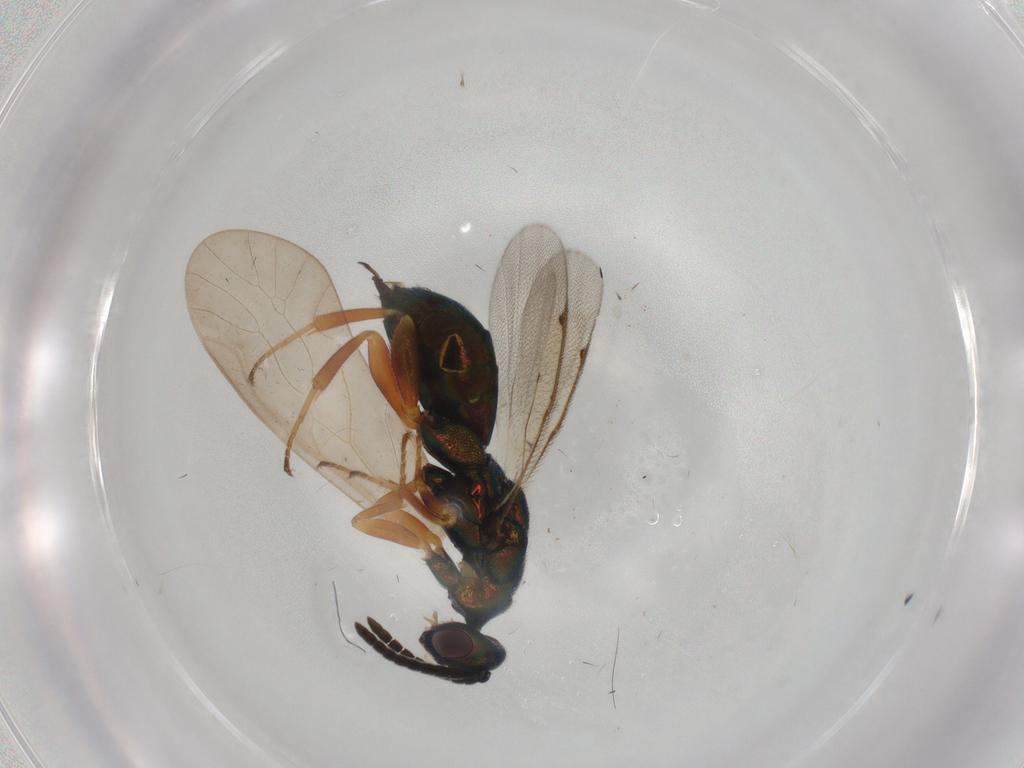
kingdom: Animalia
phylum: Arthropoda
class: Insecta
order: Hymenoptera
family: Torymidae
